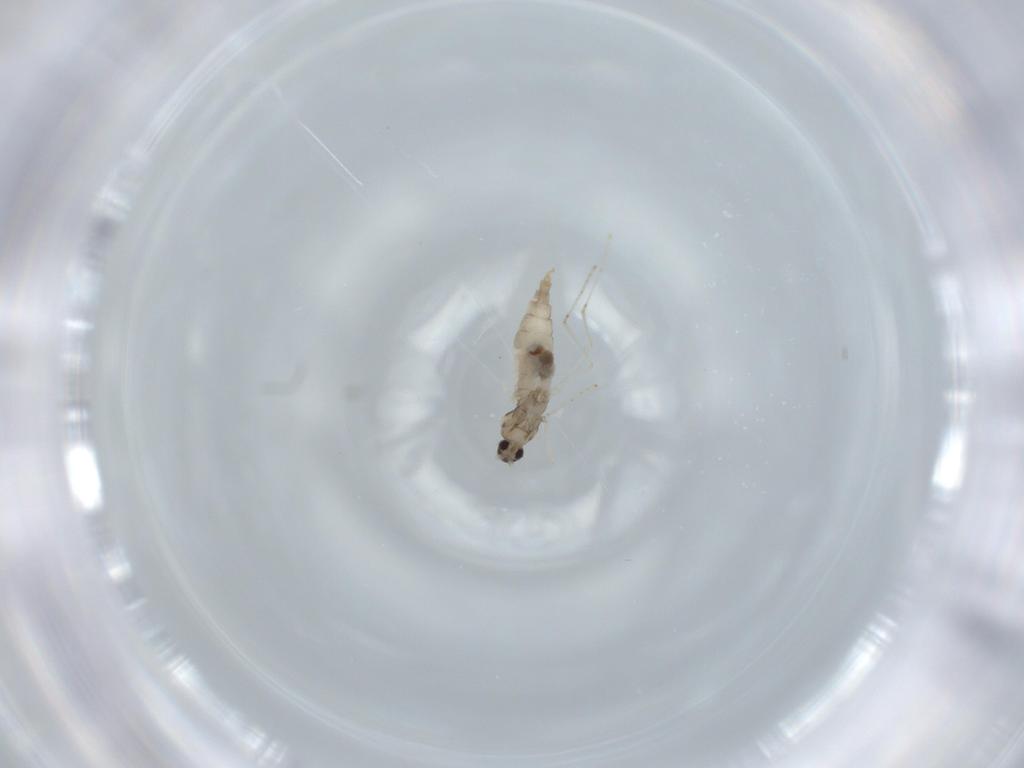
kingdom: Animalia
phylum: Arthropoda
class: Insecta
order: Diptera
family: Cecidomyiidae
